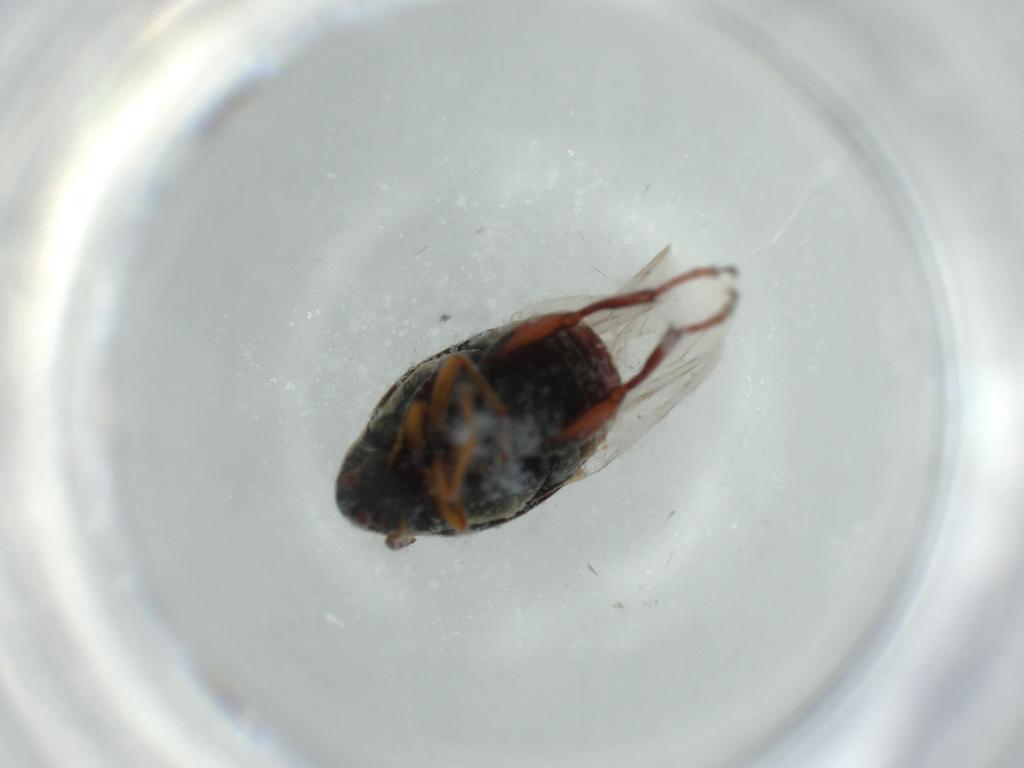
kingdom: Animalia
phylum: Arthropoda
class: Insecta
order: Coleoptera
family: Chrysomelidae
